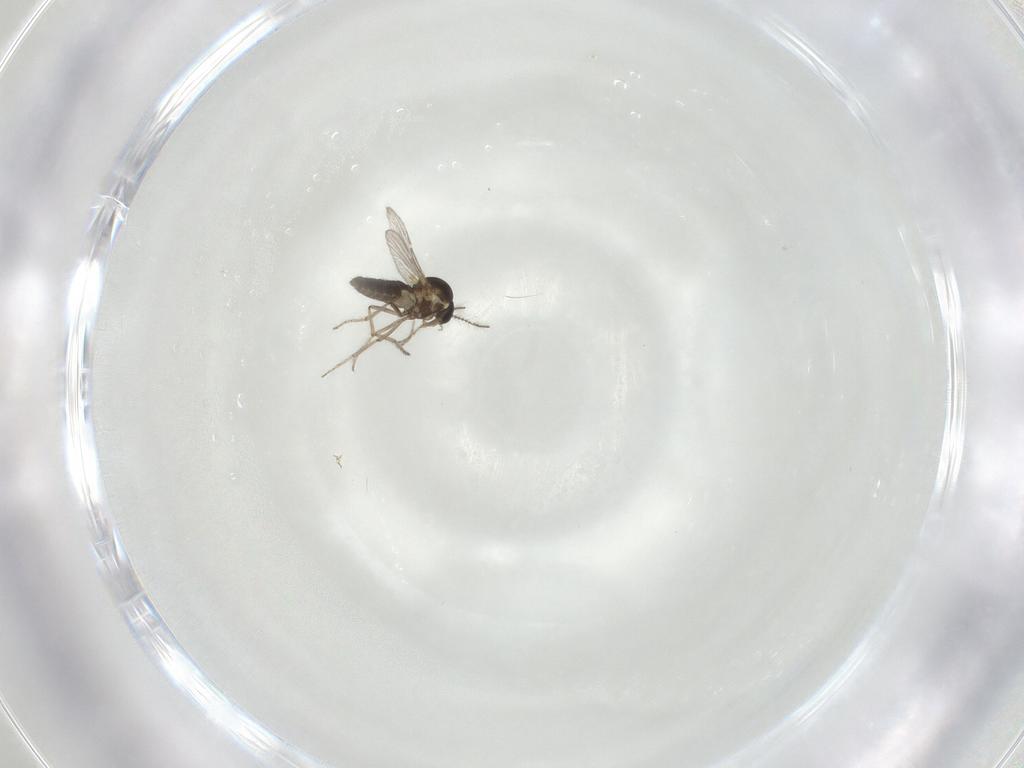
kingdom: Animalia
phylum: Arthropoda
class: Insecta
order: Diptera
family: Ceratopogonidae
